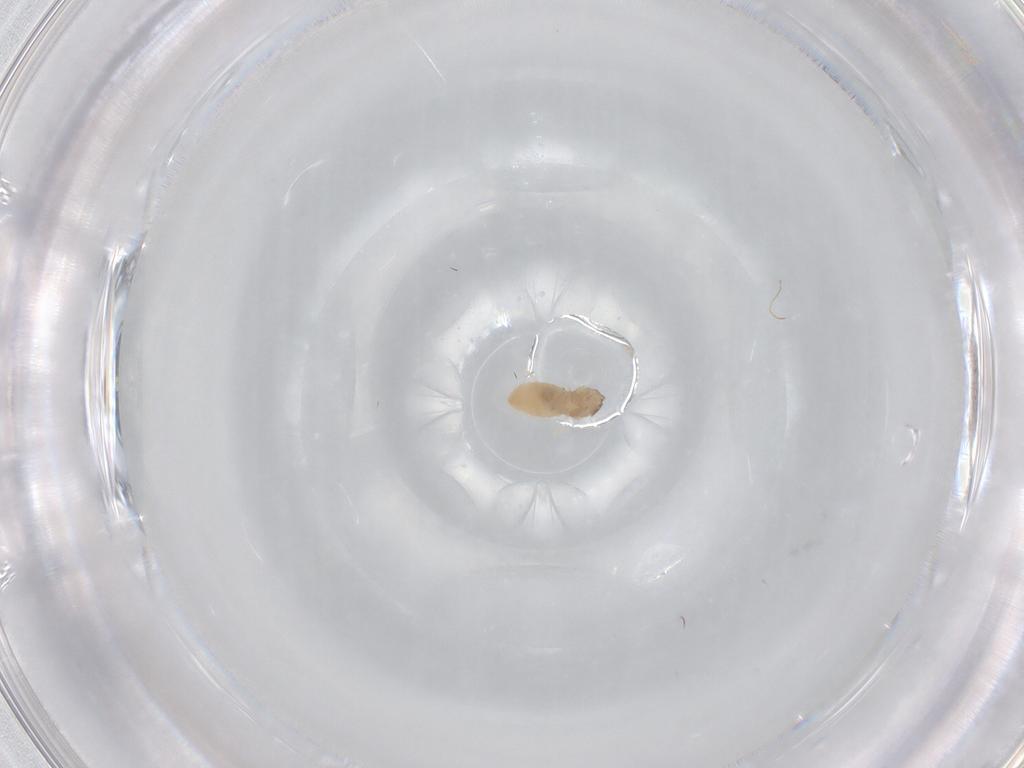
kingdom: Animalia
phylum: Arthropoda
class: Insecta
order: Diptera
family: Cecidomyiidae
